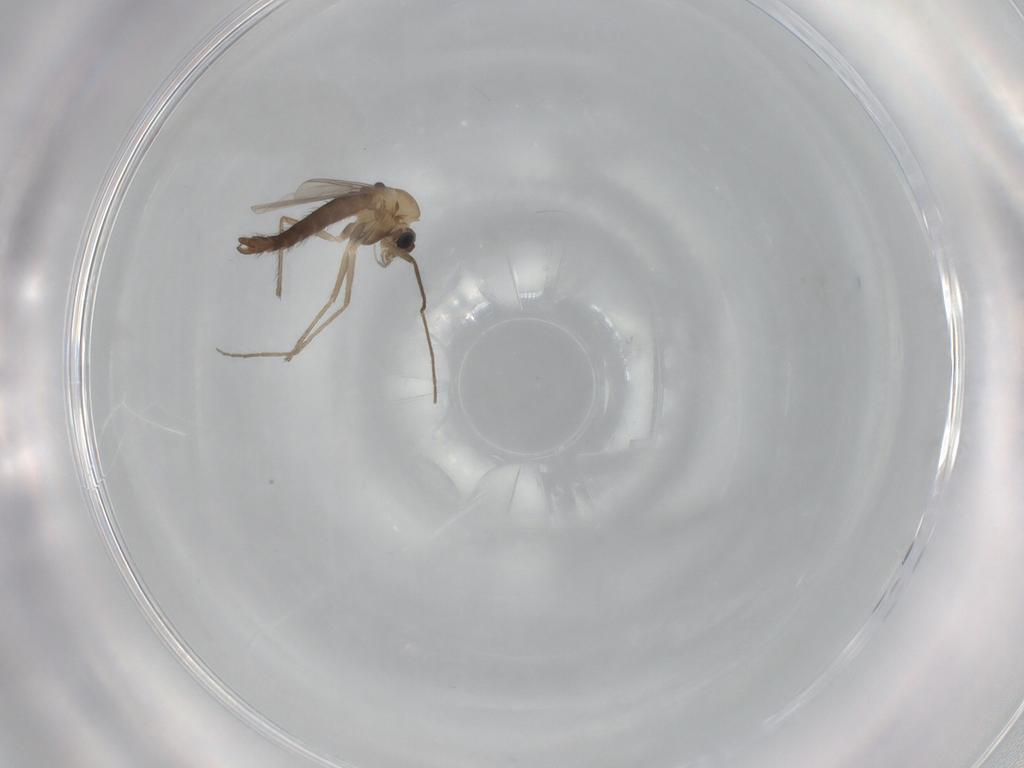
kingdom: Animalia
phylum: Arthropoda
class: Insecta
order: Diptera
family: Chironomidae
